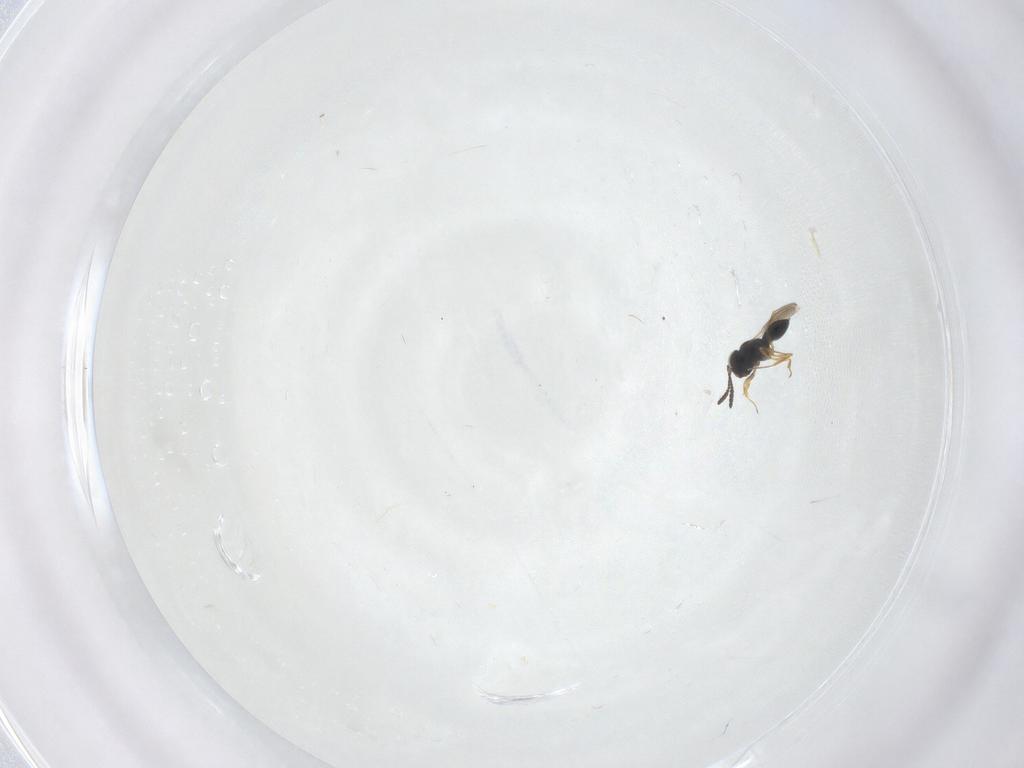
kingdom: Animalia
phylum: Arthropoda
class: Insecta
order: Hymenoptera
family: Scelionidae
